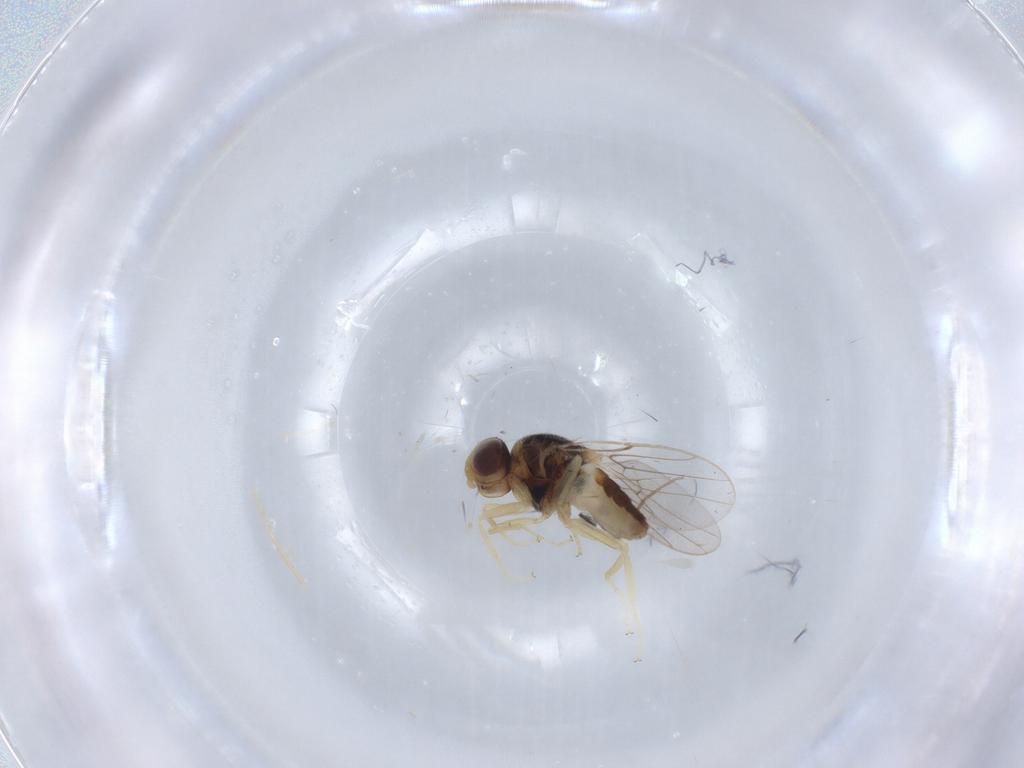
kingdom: Animalia
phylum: Arthropoda
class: Insecta
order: Diptera
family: Chloropidae
